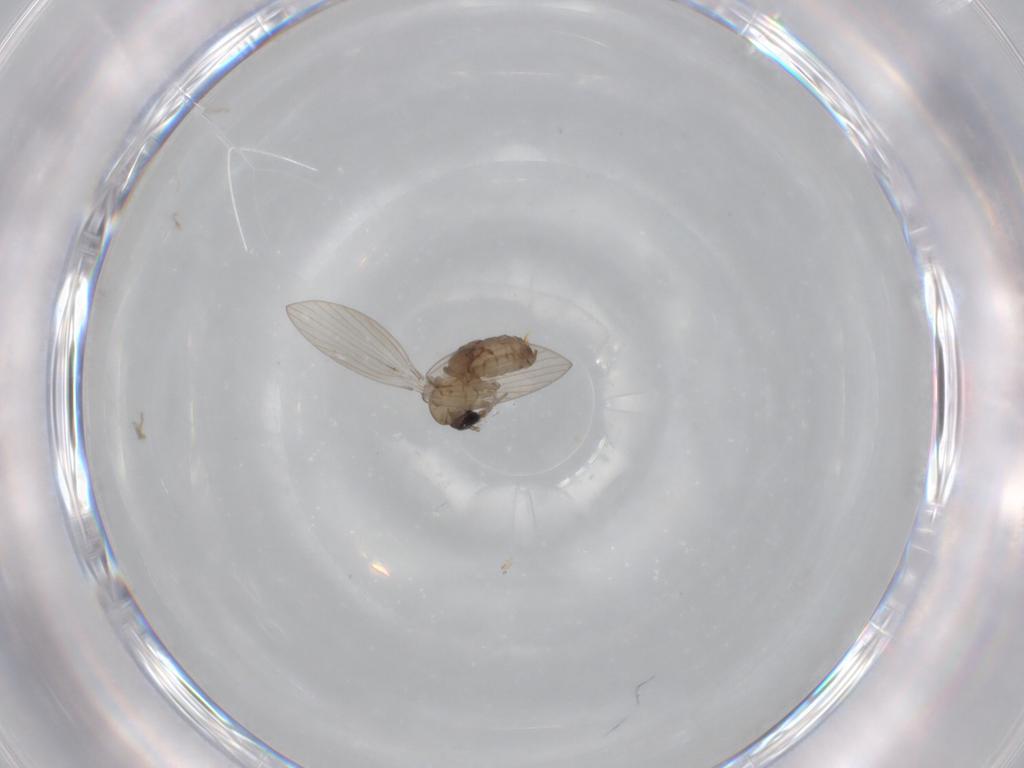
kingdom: Animalia
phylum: Arthropoda
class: Insecta
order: Diptera
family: Psychodidae
